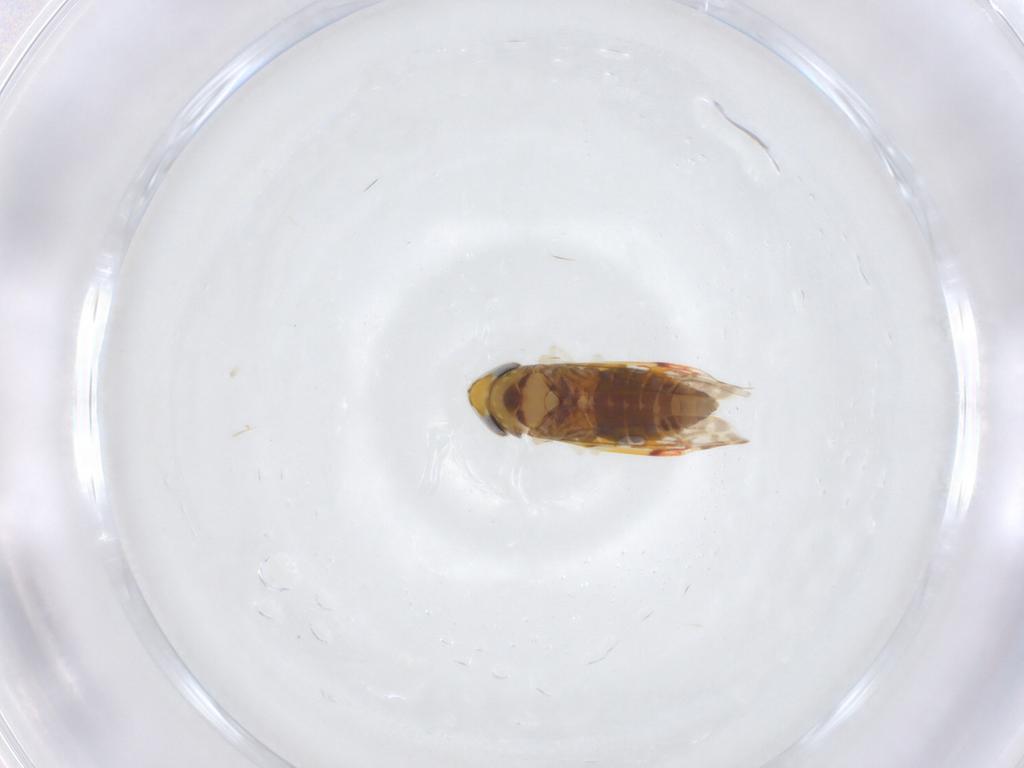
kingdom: Animalia
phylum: Arthropoda
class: Insecta
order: Hemiptera
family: Cicadellidae
